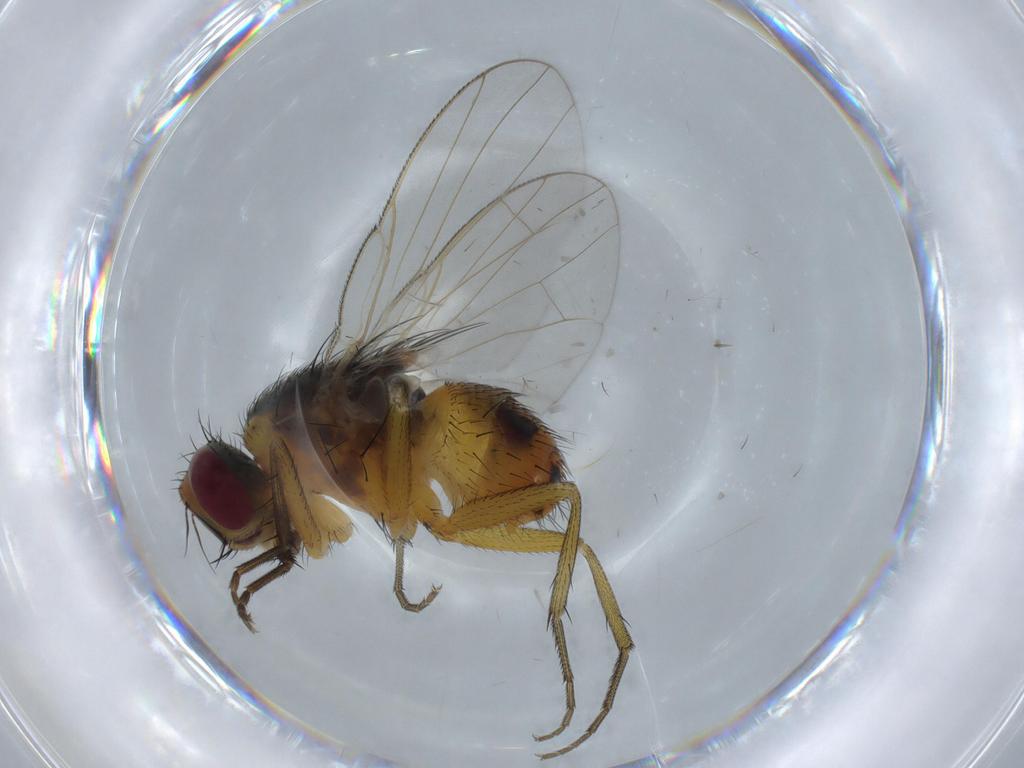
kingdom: Animalia
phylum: Arthropoda
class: Insecta
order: Diptera
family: Muscidae
